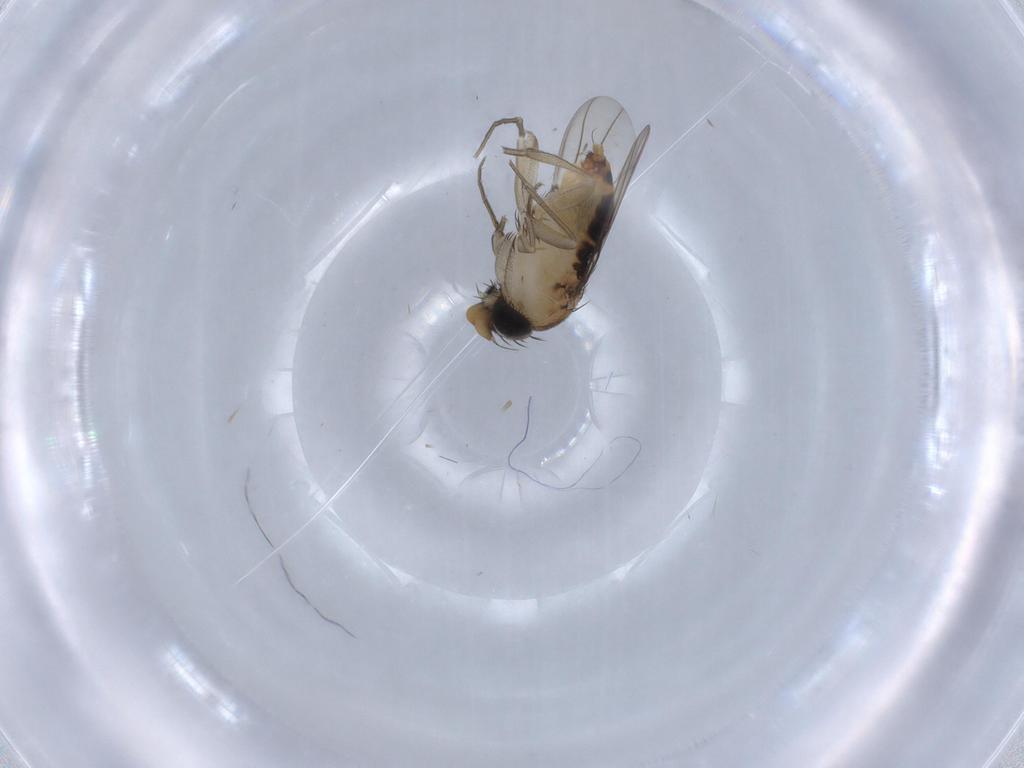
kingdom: Animalia
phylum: Arthropoda
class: Insecta
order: Diptera
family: Phoridae
